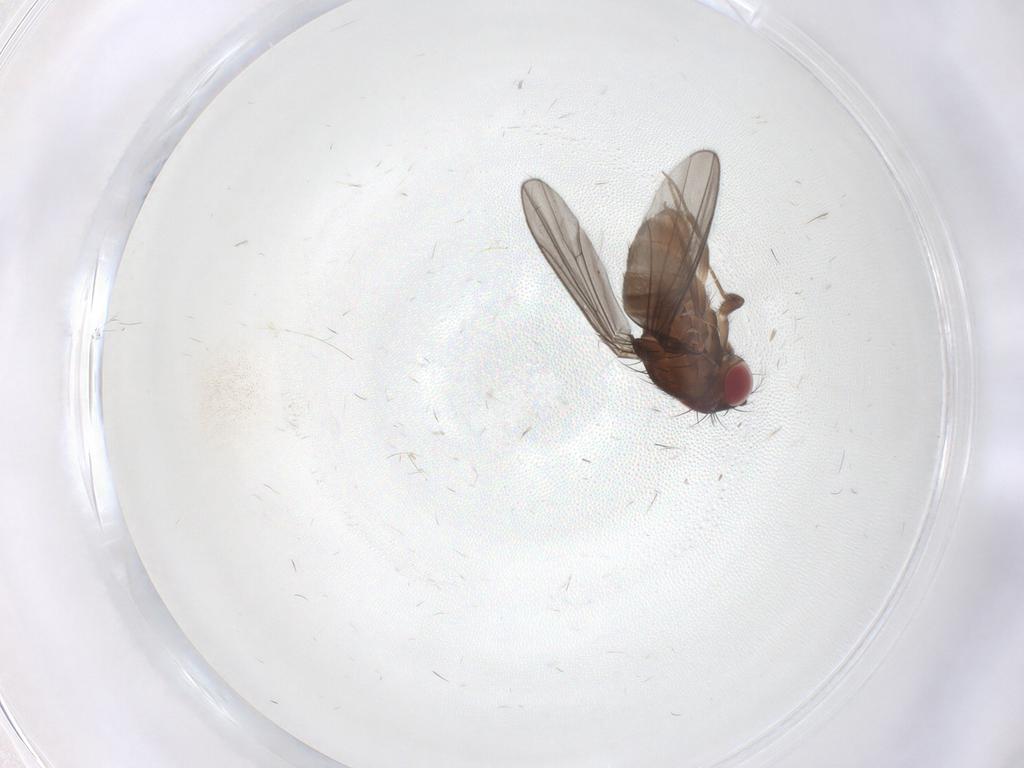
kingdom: Animalia
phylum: Arthropoda
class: Insecta
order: Diptera
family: Drosophilidae
